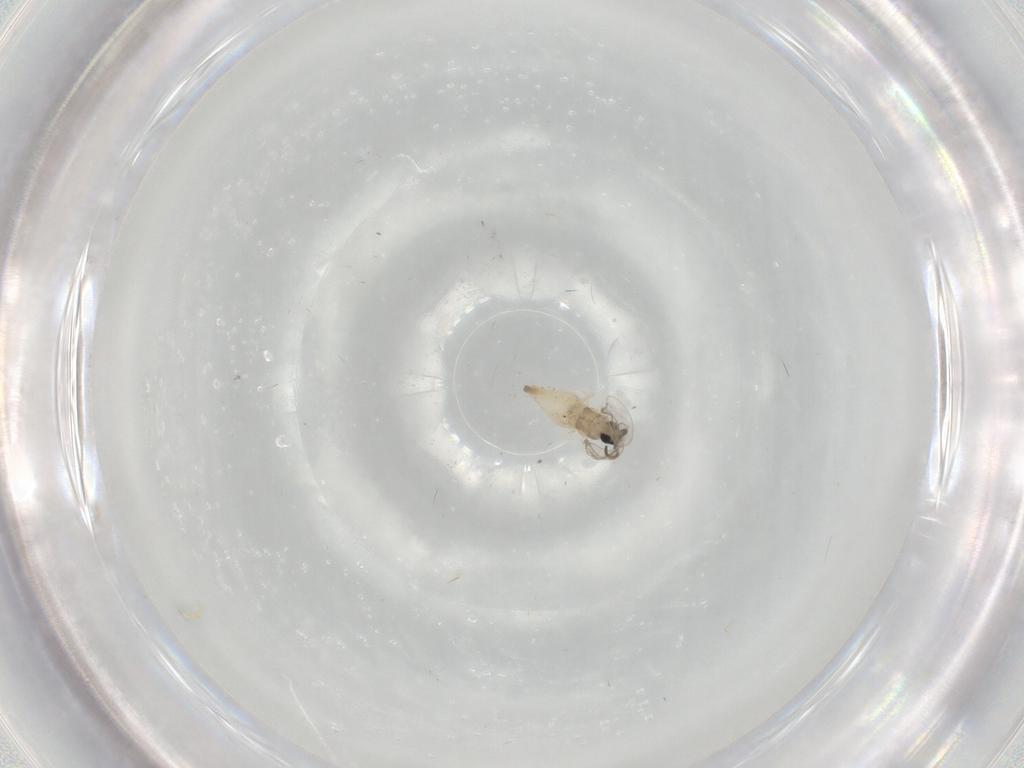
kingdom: Animalia
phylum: Arthropoda
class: Insecta
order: Diptera
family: Cecidomyiidae
